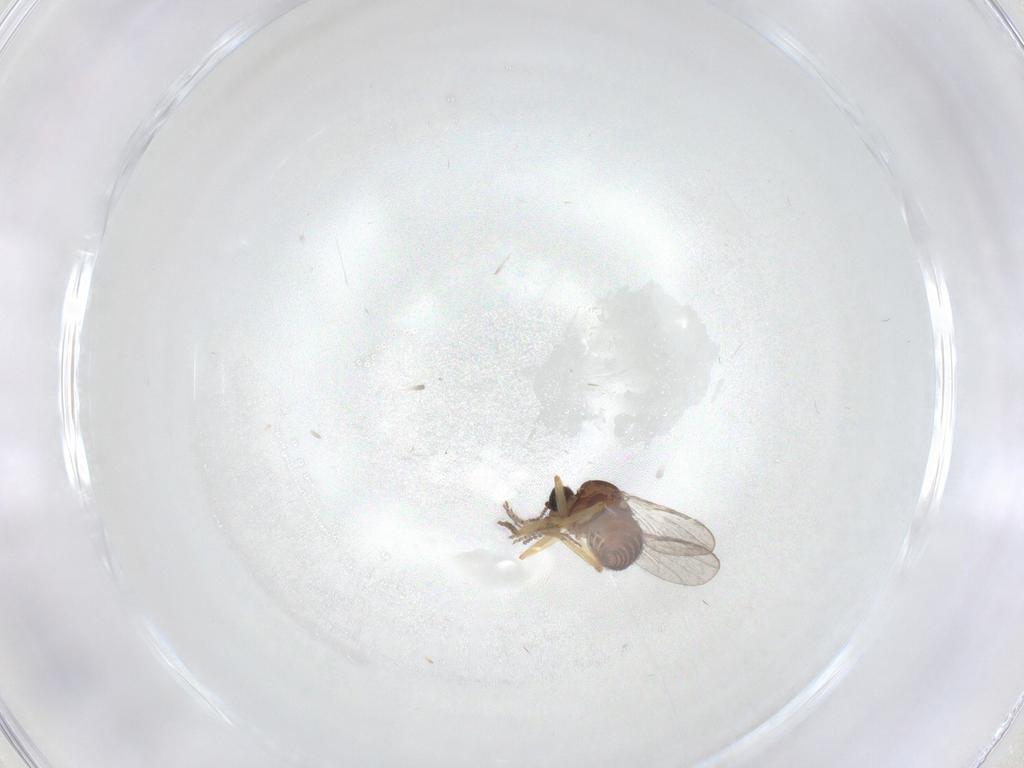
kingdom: Animalia
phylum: Arthropoda
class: Insecta
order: Diptera
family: Ceratopogonidae
